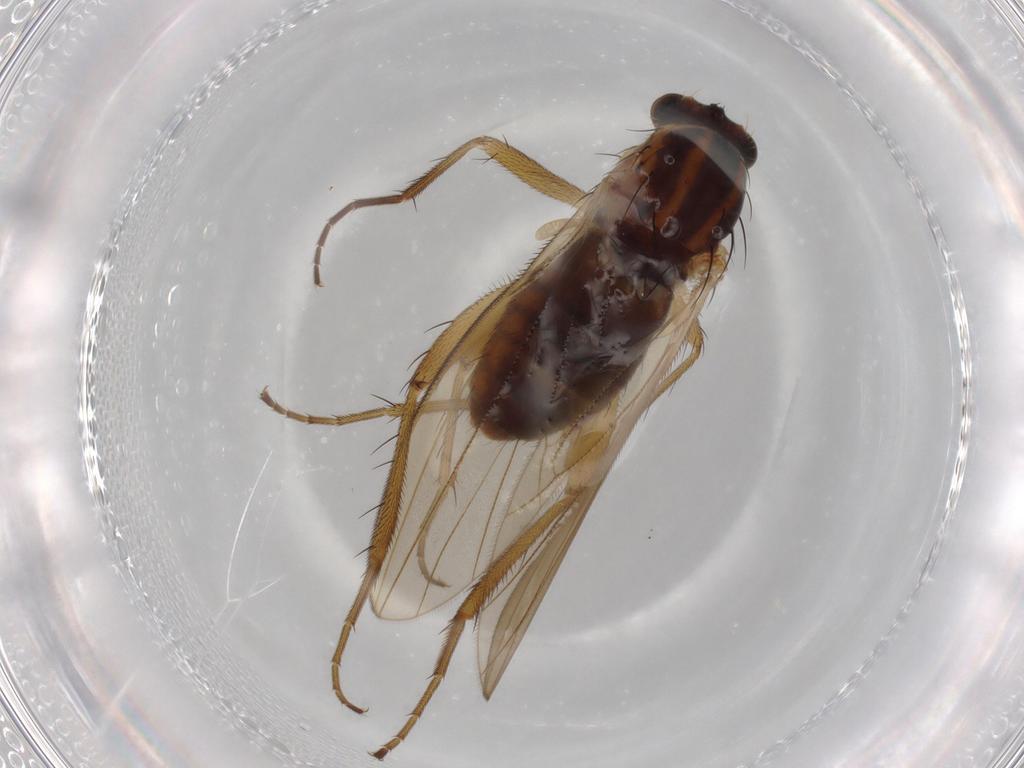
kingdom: Animalia
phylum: Arthropoda
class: Insecta
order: Diptera
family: Lonchopteridae
